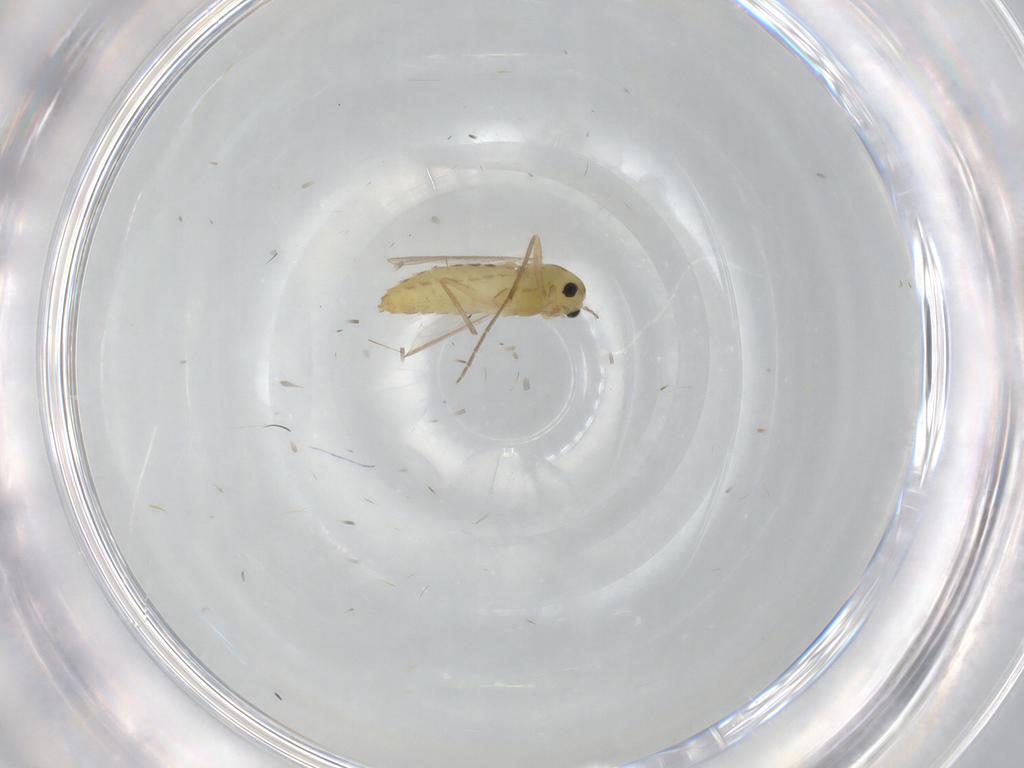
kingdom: Animalia
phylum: Arthropoda
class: Insecta
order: Diptera
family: Chironomidae
